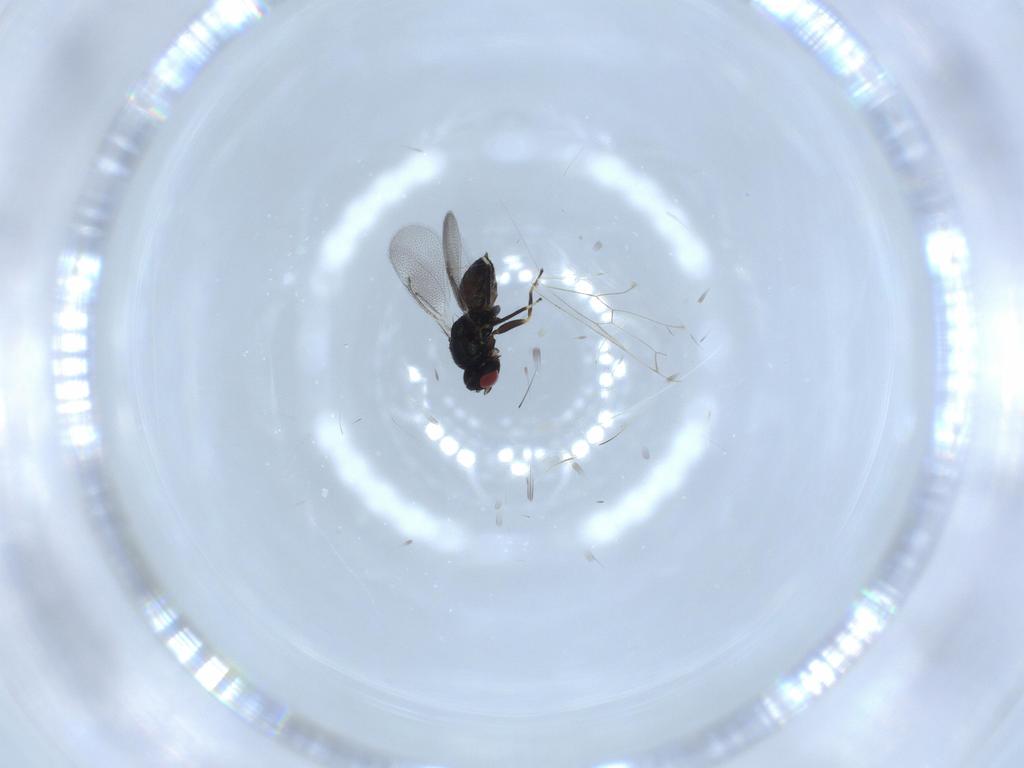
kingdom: Animalia
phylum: Arthropoda
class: Insecta
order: Hymenoptera
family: Eulophidae
